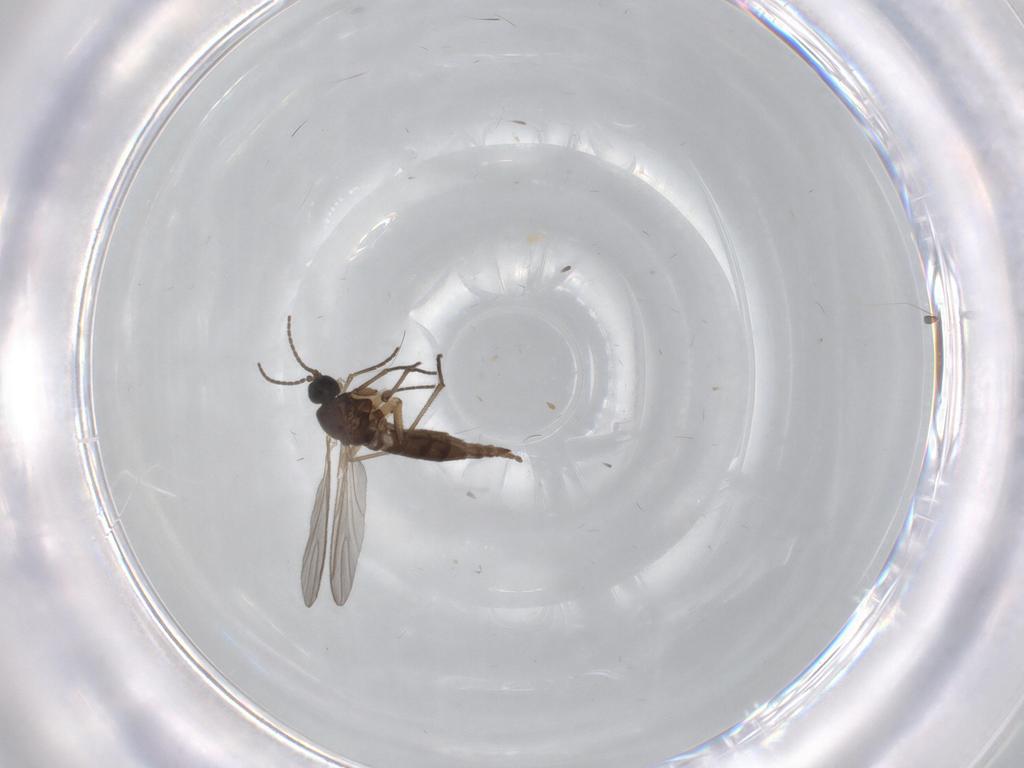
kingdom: Animalia
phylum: Arthropoda
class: Insecta
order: Diptera
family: Sciaridae
